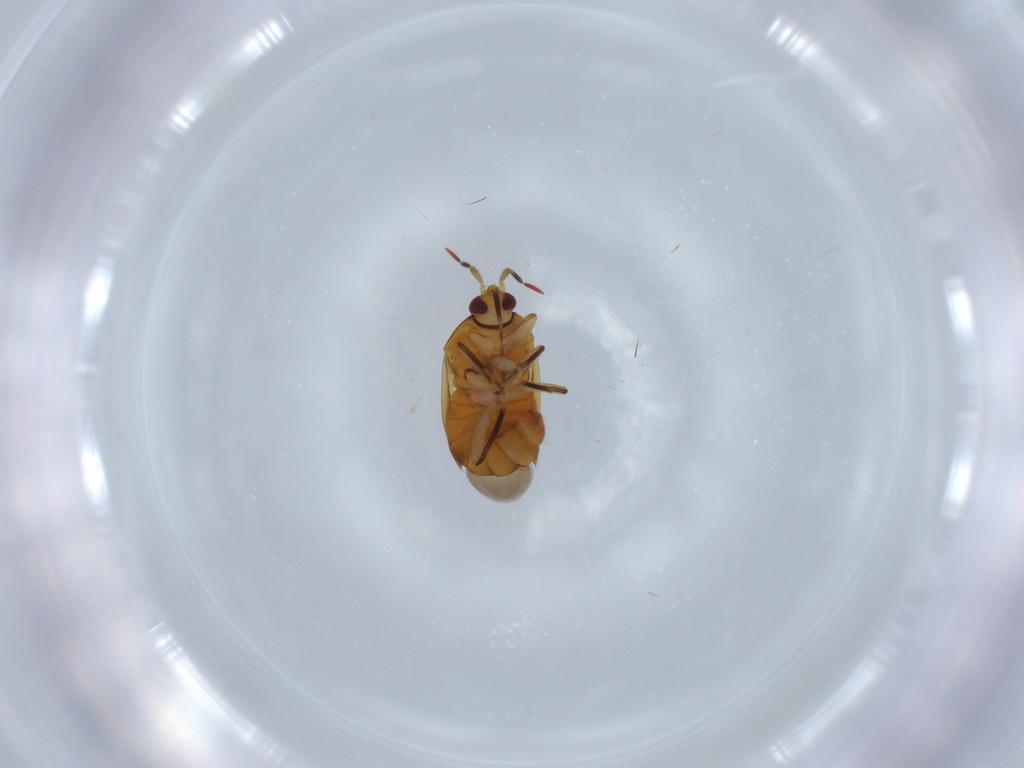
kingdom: Animalia
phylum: Arthropoda
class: Insecta
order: Hemiptera
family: Anthocoridae
